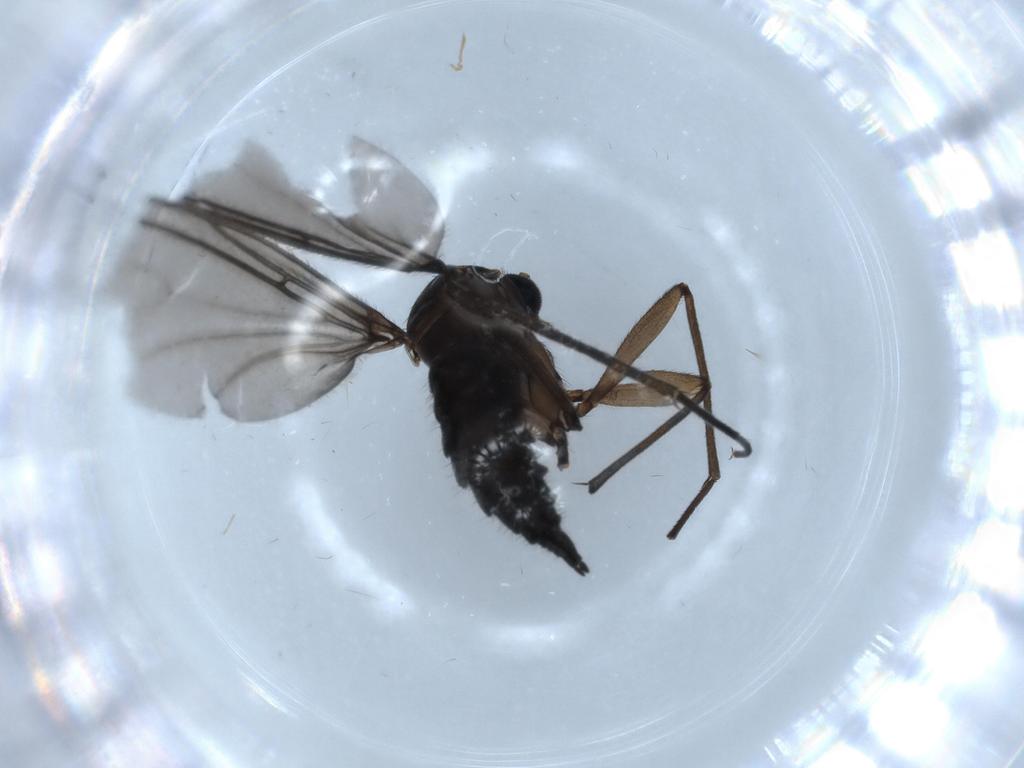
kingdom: Animalia
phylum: Arthropoda
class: Insecta
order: Diptera
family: Sciaridae
